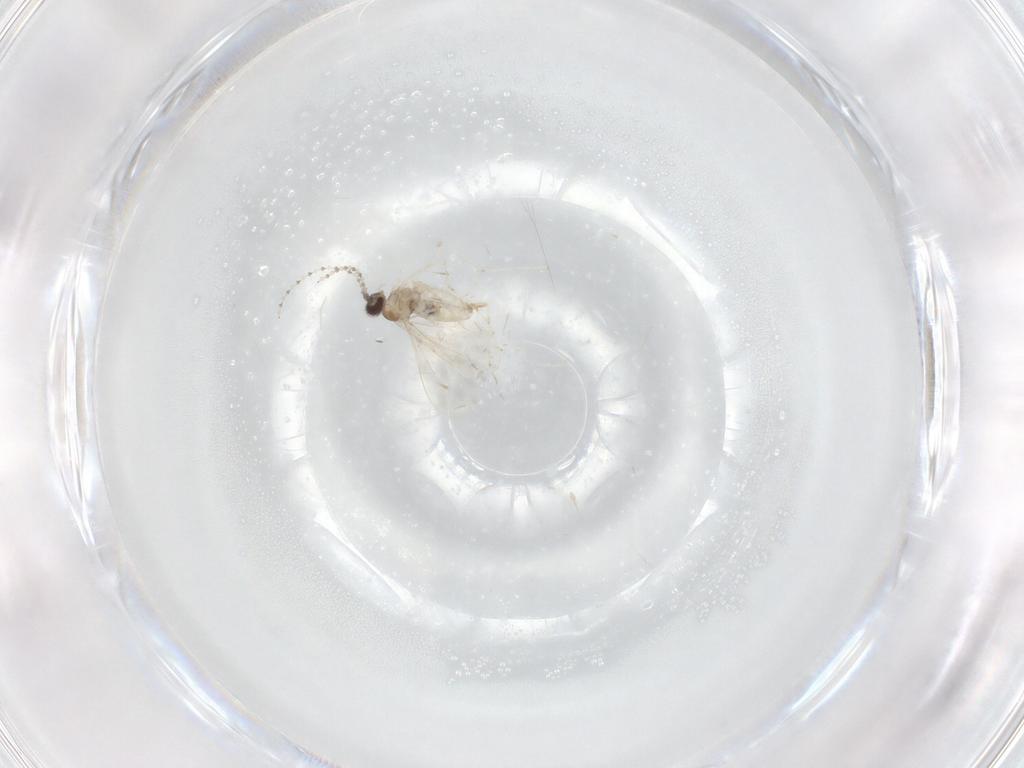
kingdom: Animalia
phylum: Arthropoda
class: Insecta
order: Diptera
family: Cecidomyiidae
